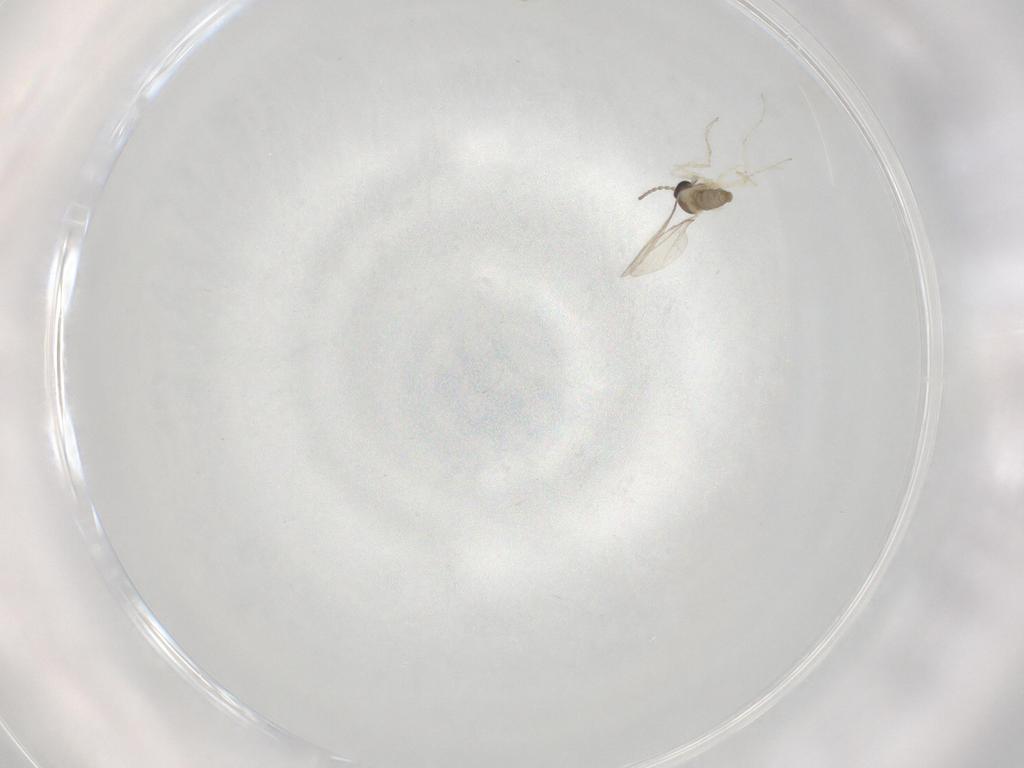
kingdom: Animalia
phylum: Arthropoda
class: Insecta
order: Diptera
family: Cecidomyiidae
